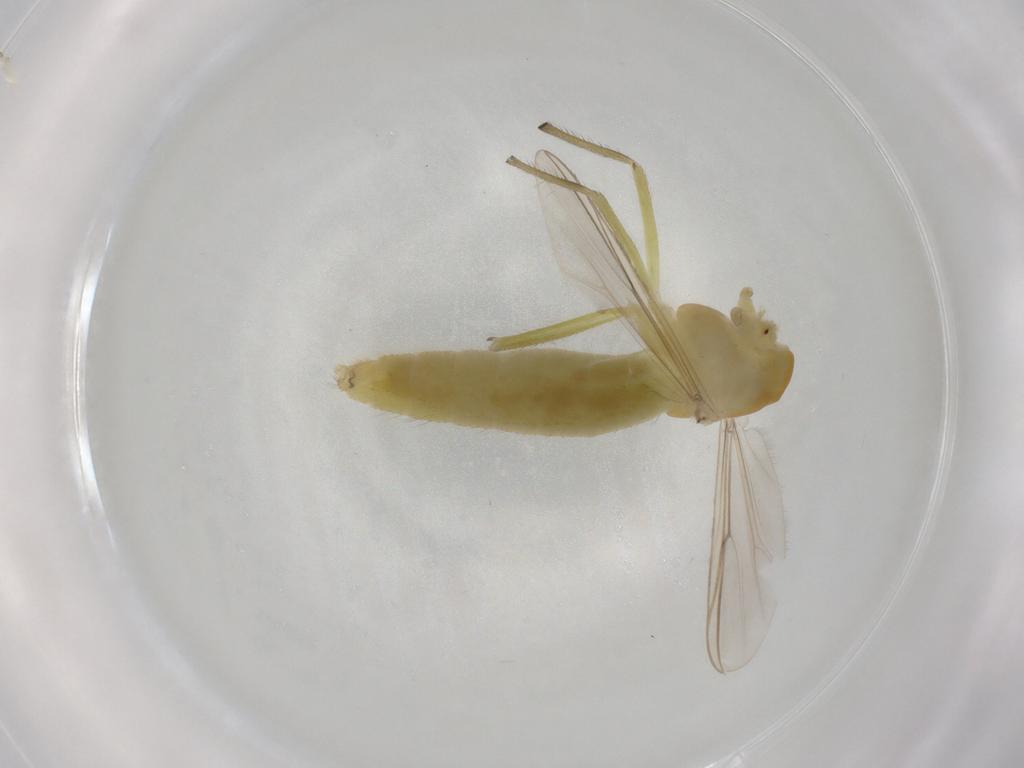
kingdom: Animalia
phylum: Arthropoda
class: Insecta
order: Diptera
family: Chironomidae
